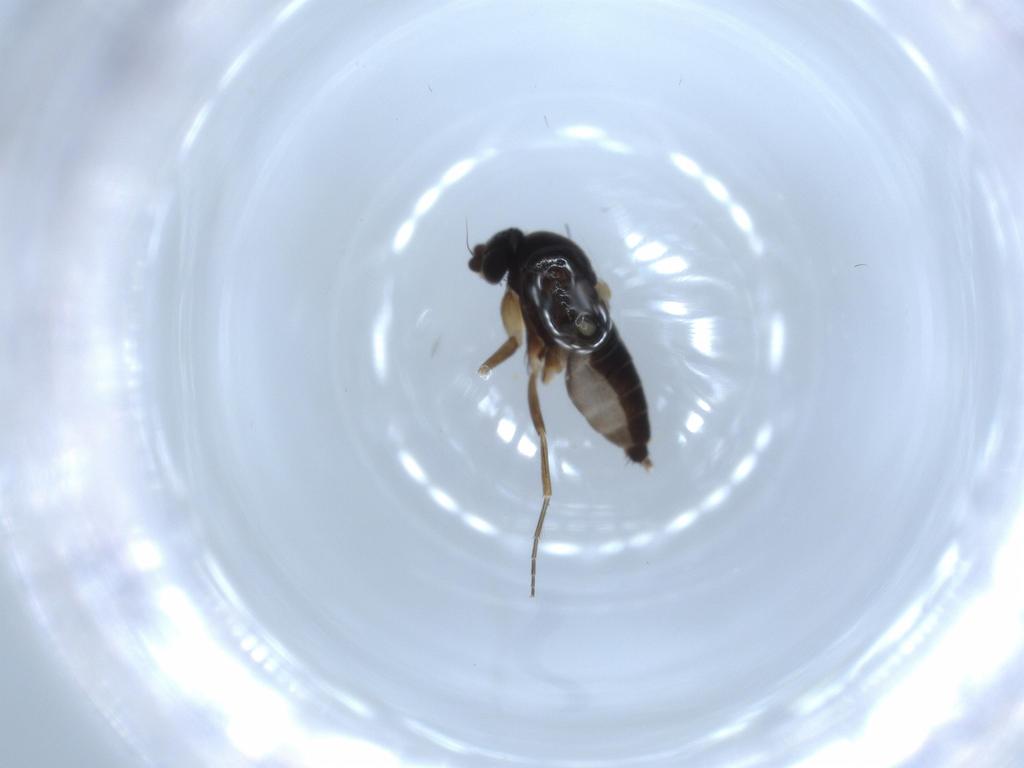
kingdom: Animalia
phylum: Arthropoda
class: Insecta
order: Diptera
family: Phoridae
